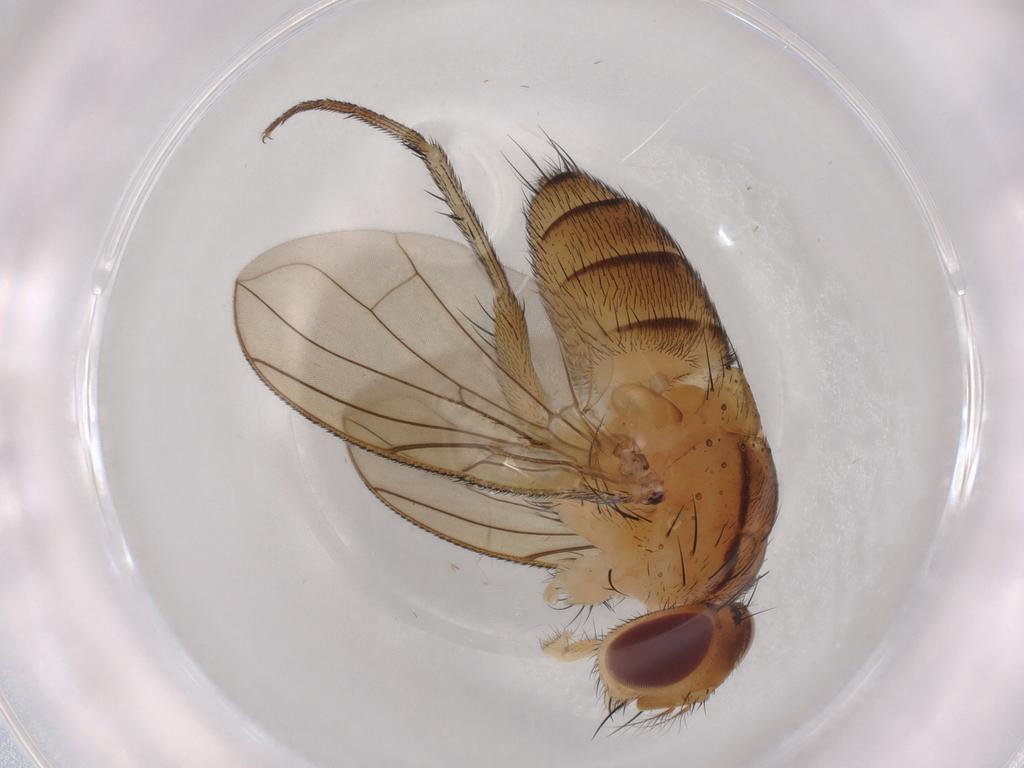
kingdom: Animalia
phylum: Arthropoda
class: Insecta
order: Diptera
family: Calliphoridae
